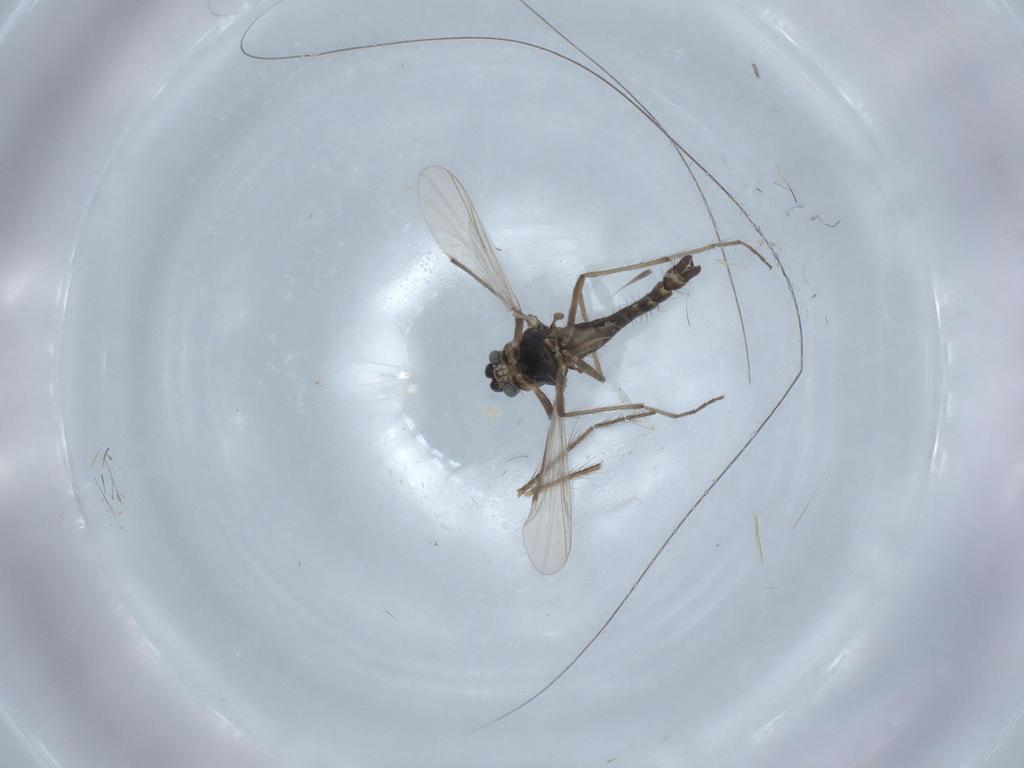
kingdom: Animalia
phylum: Arthropoda
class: Insecta
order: Diptera
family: Chironomidae
